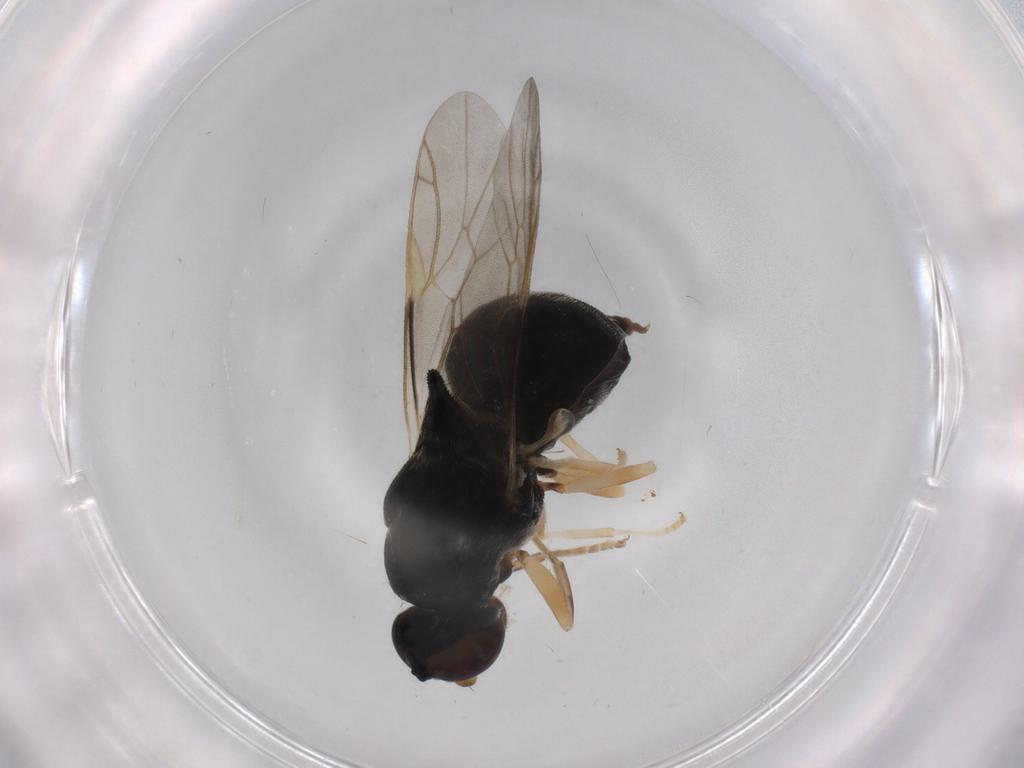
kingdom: Animalia
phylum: Arthropoda
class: Insecta
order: Diptera
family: Stratiomyidae
